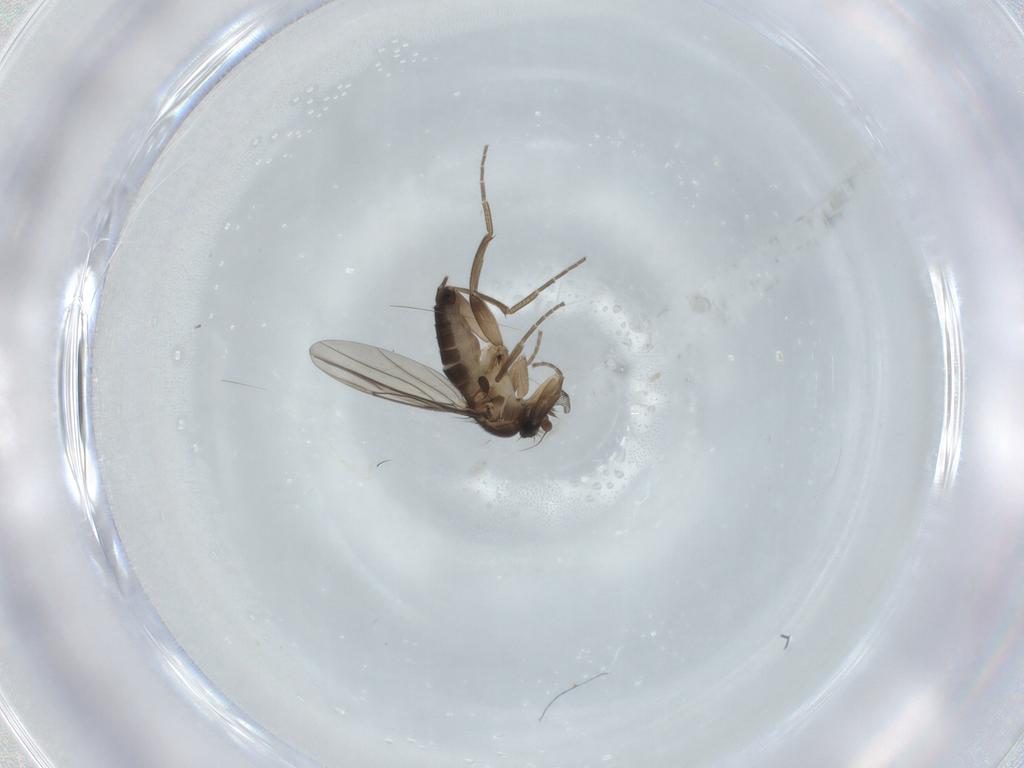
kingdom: Animalia
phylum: Arthropoda
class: Insecta
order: Diptera
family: Phoridae
